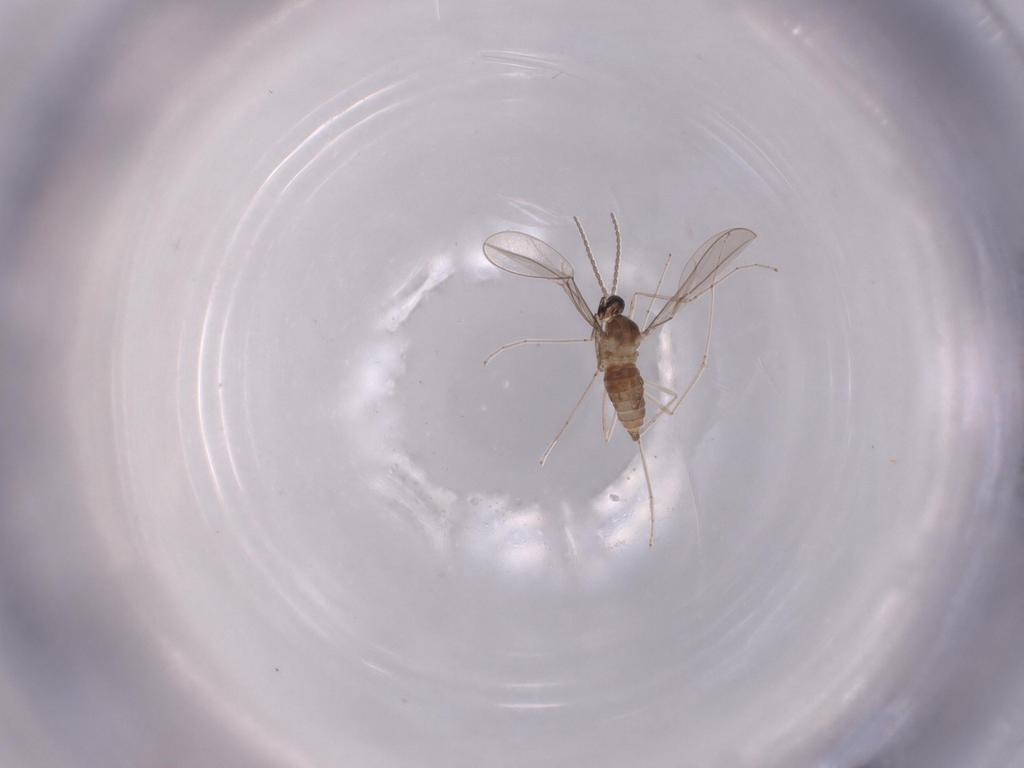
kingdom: Animalia
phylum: Arthropoda
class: Insecta
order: Diptera
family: Cecidomyiidae
